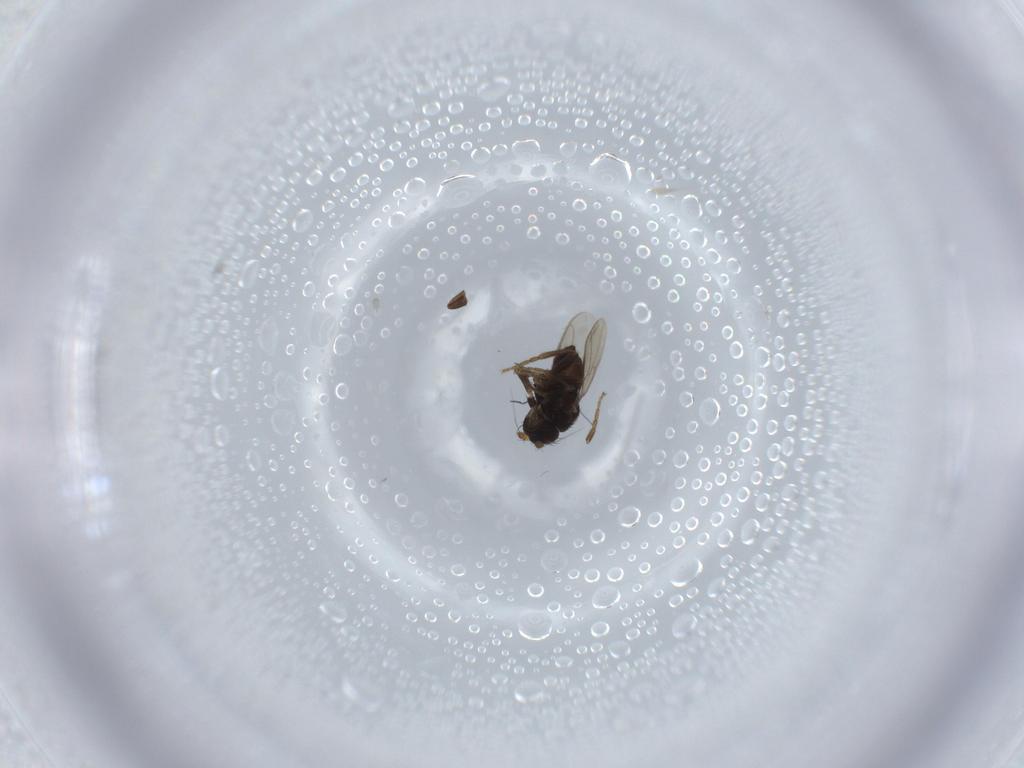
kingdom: Animalia
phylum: Arthropoda
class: Insecta
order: Diptera
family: Sphaeroceridae
